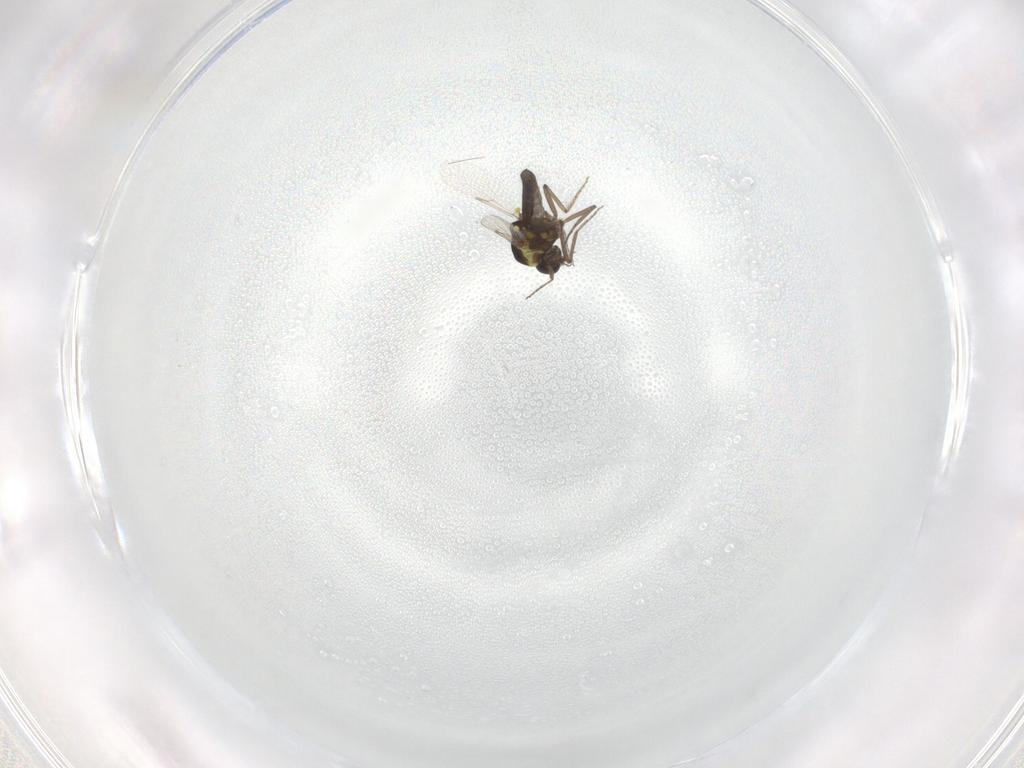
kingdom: Animalia
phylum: Arthropoda
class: Insecta
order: Diptera
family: Ceratopogonidae
